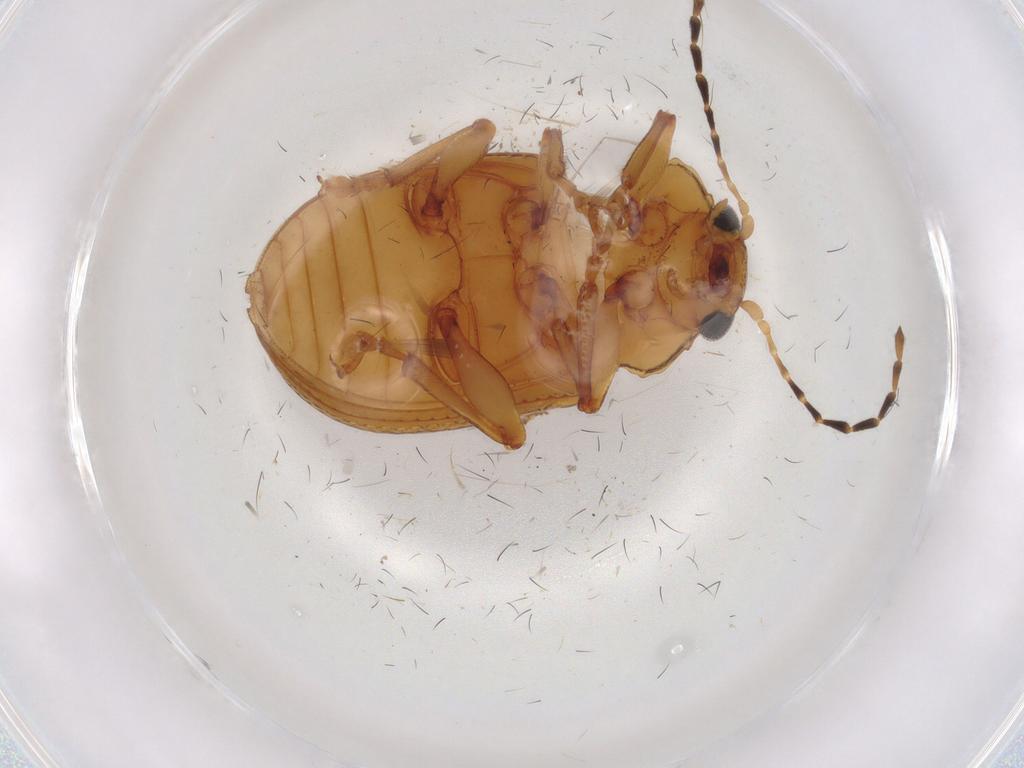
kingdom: Animalia
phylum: Arthropoda
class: Insecta
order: Coleoptera
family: Chrysomelidae
